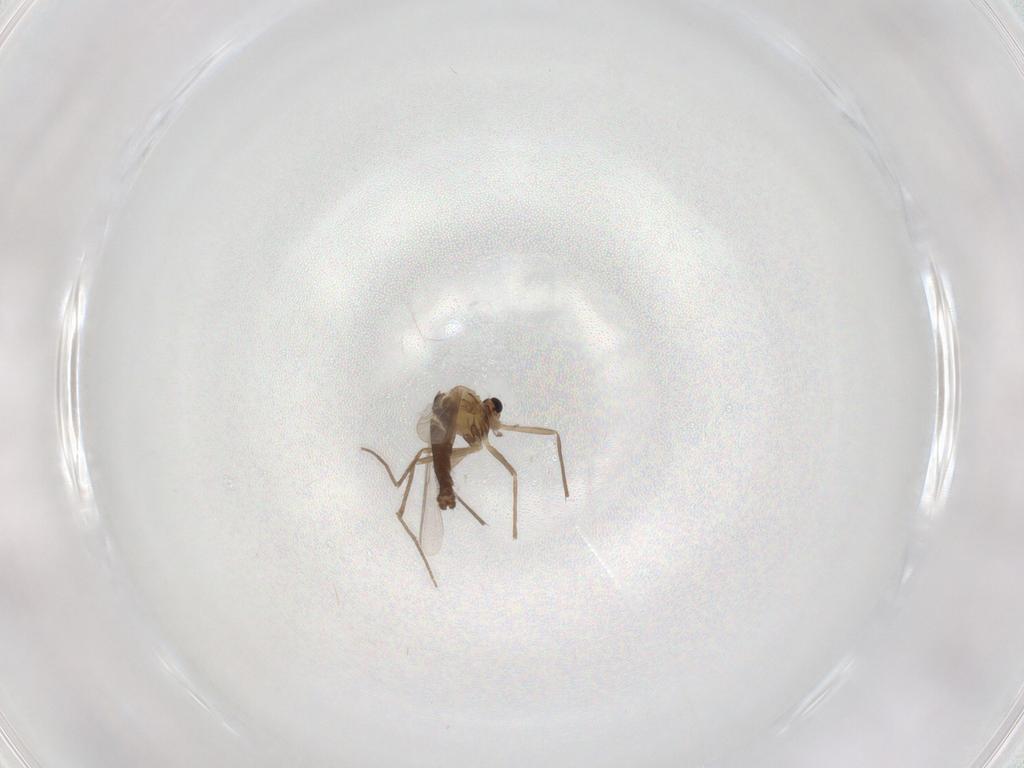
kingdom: Animalia
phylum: Arthropoda
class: Insecta
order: Diptera
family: Chironomidae
